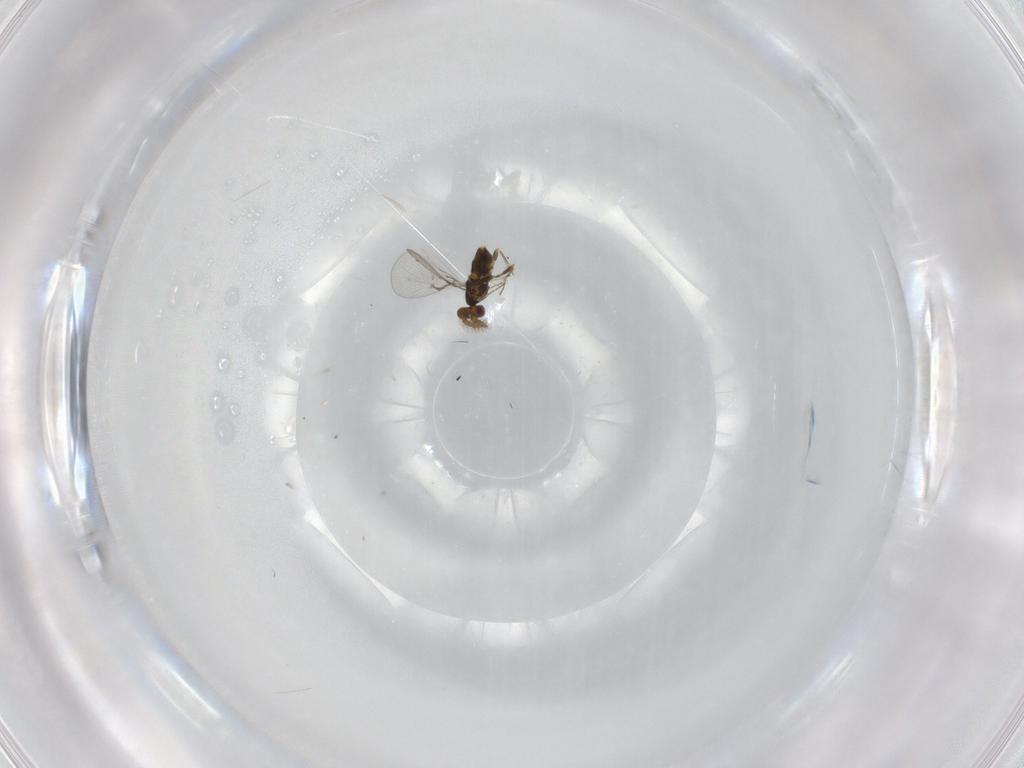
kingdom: Animalia
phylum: Arthropoda
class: Insecta
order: Hymenoptera
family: Trichogrammatidae
